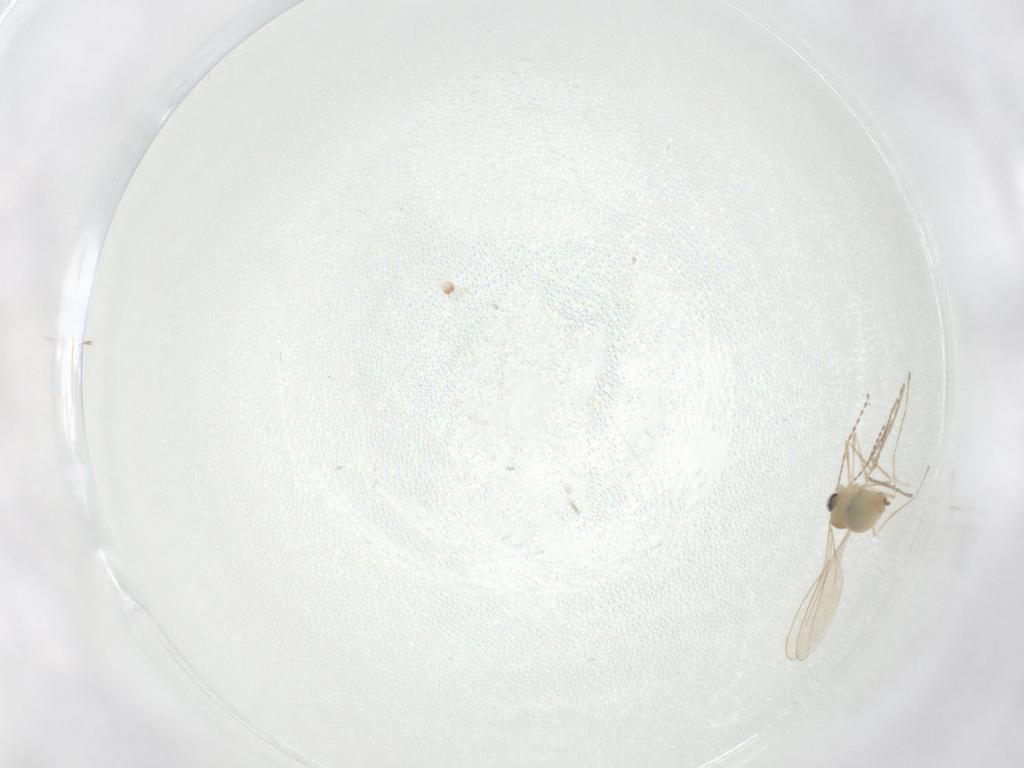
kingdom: Animalia
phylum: Arthropoda
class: Insecta
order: Diptera
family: Cecidomyiidae
